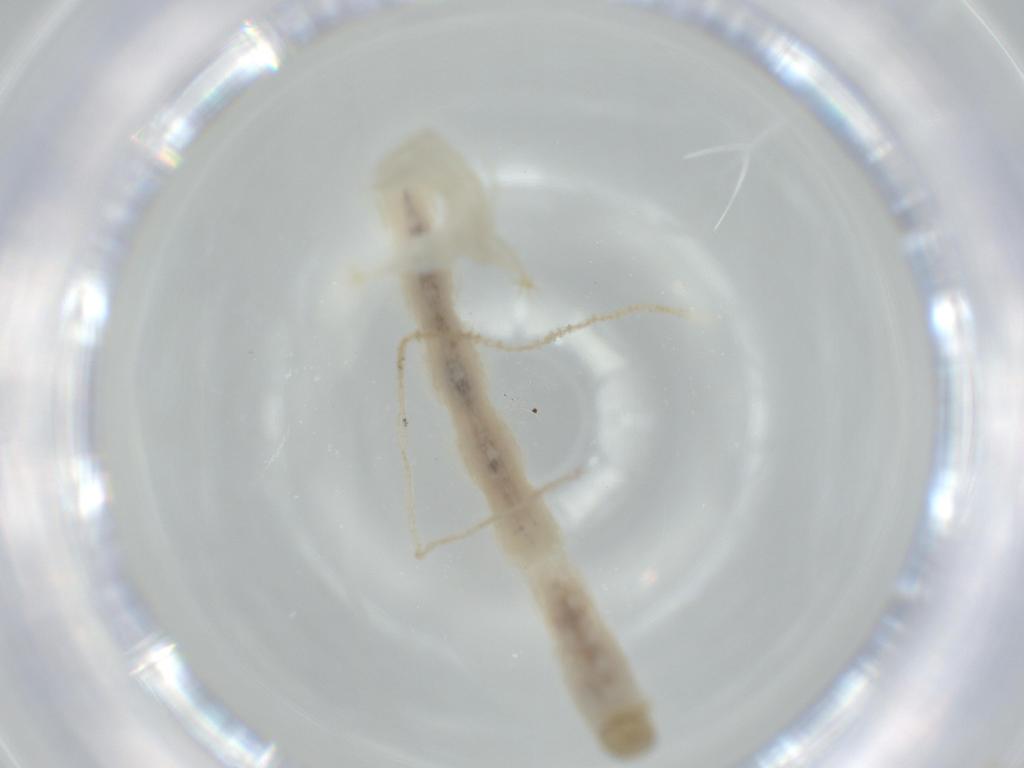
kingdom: Animalia
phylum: Arthropoda
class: Insecta
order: Diptera
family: Chironomidae
